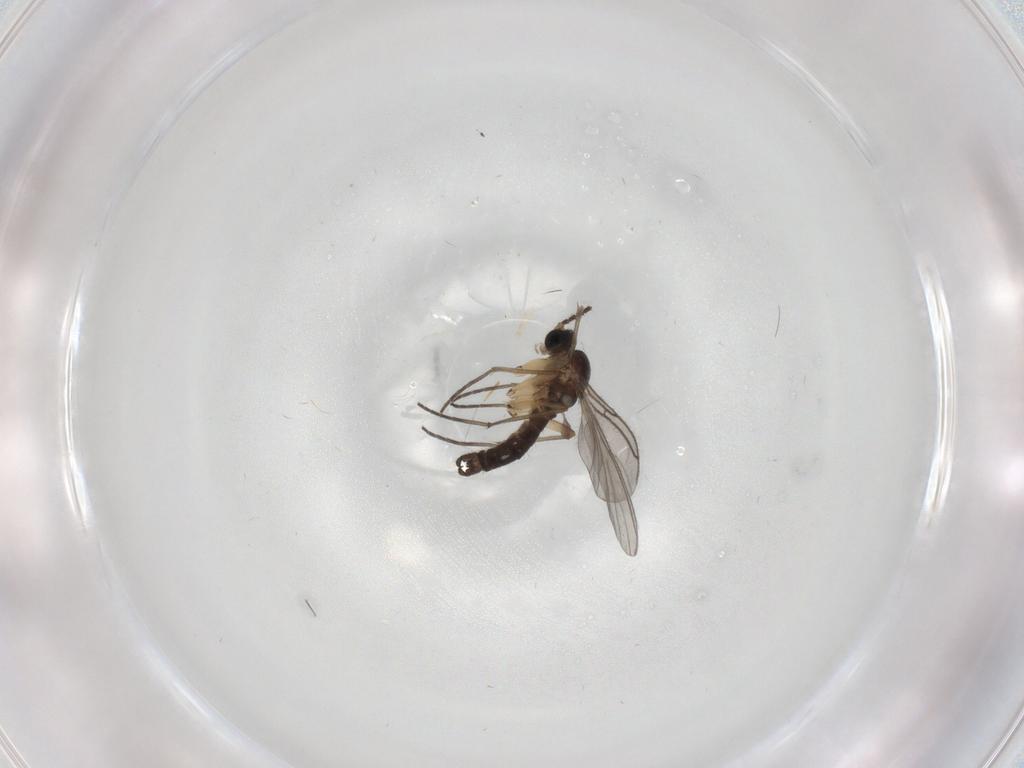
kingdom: Animalia
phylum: Arthropoda
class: Insecta
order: Diptera
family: Sciaridae
